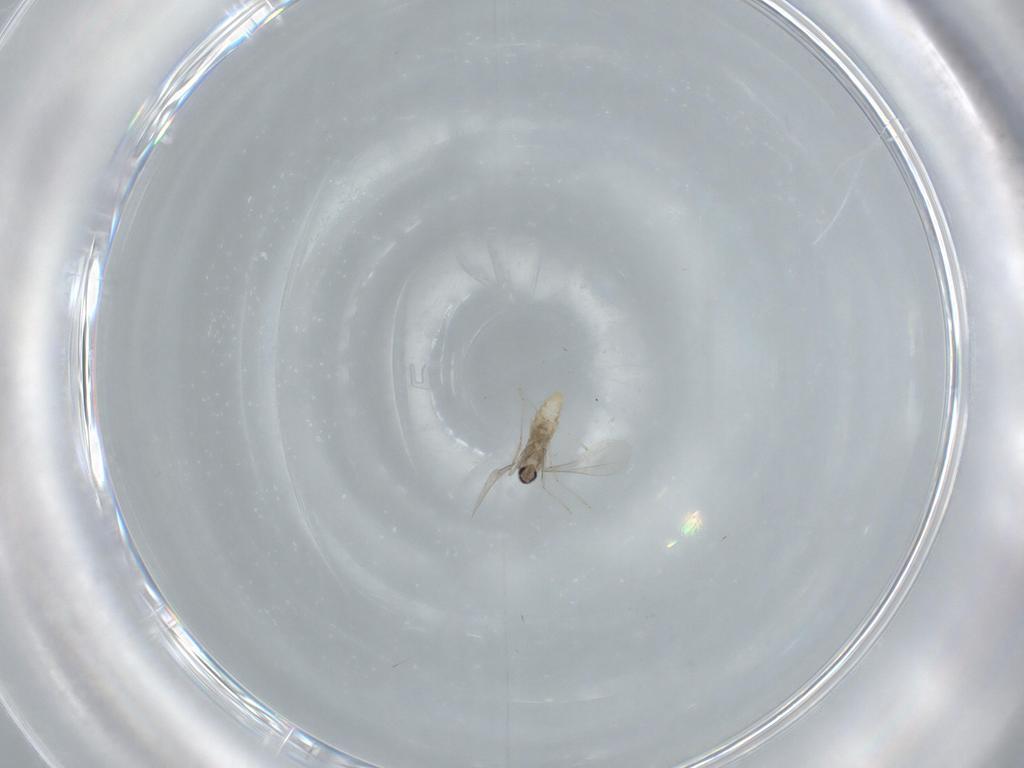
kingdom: Animalia
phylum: Arthropoda
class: Insecta
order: Diptera
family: Cecidomyiidae
